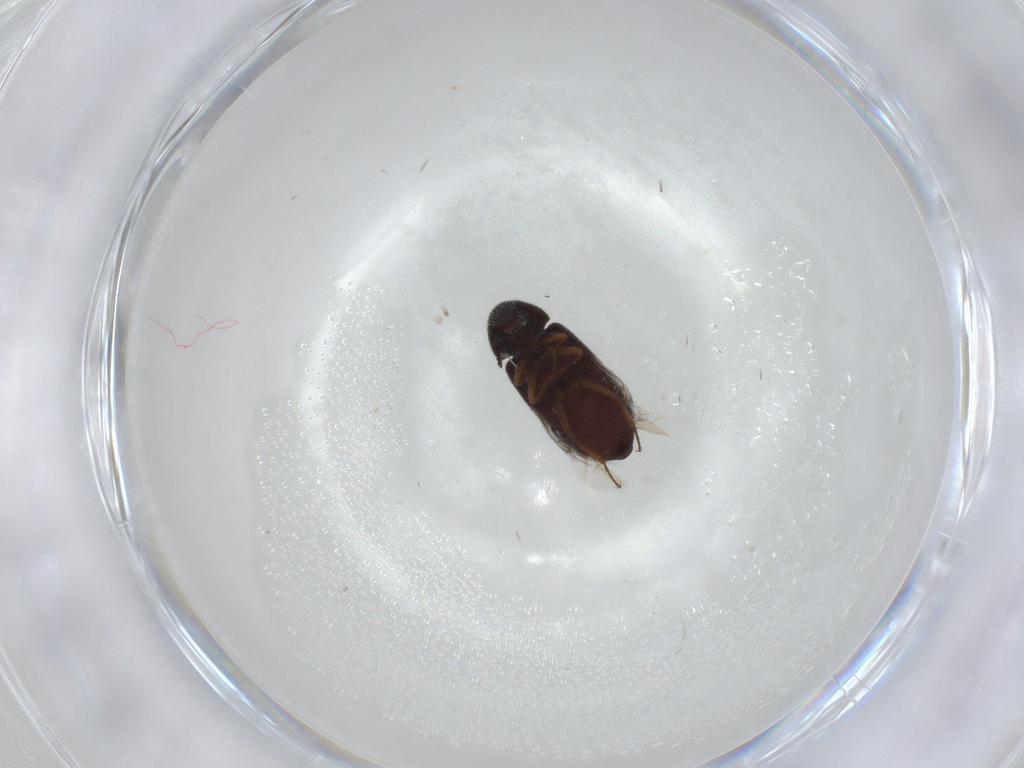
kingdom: Animalia
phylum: Arthropoda
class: Insecta
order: Coleoptera
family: Rhadalidae
